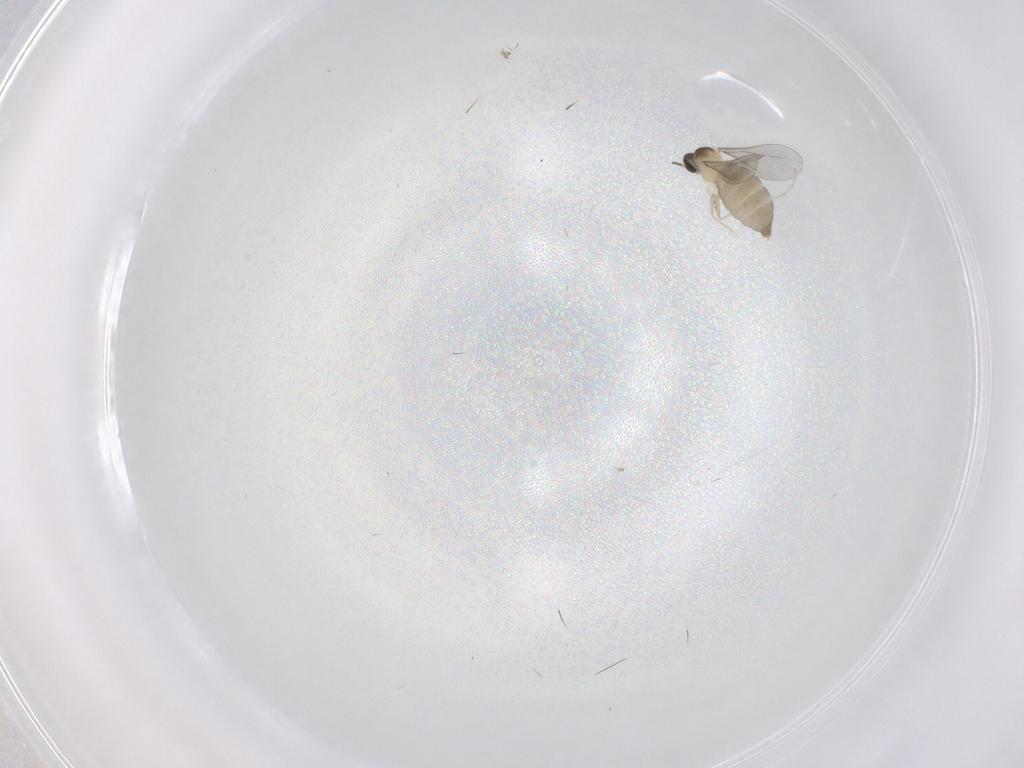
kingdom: Animalia
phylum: Arthropoda
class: Insecta
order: Diptera
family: Cecidomyiidae
